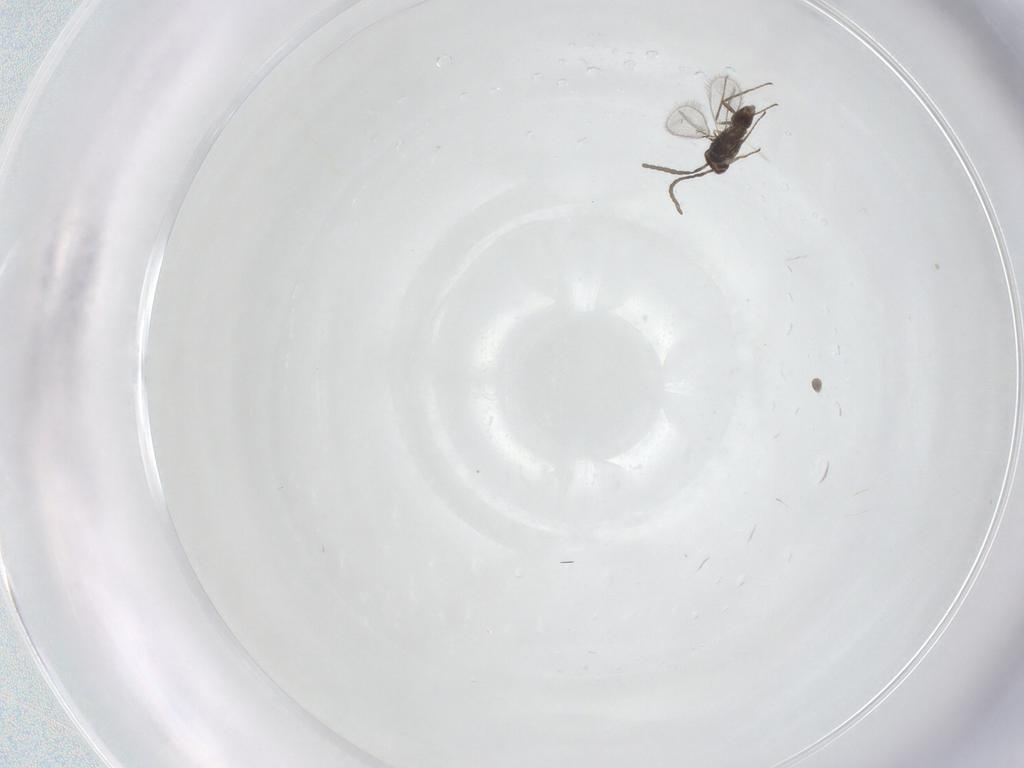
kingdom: Animalia
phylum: Arthropoda
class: Insecta
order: Hymenoptera
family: Mymaridae
